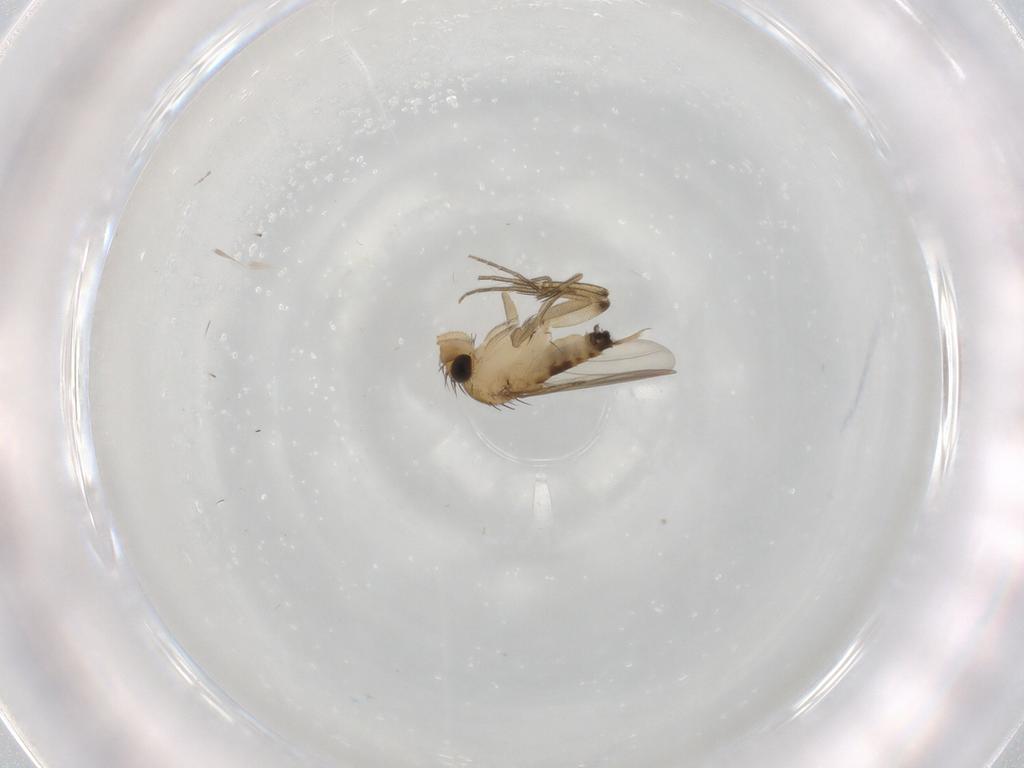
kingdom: Animalia
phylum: Arthropoda
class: Insecta
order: Diptera
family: Phoridae
